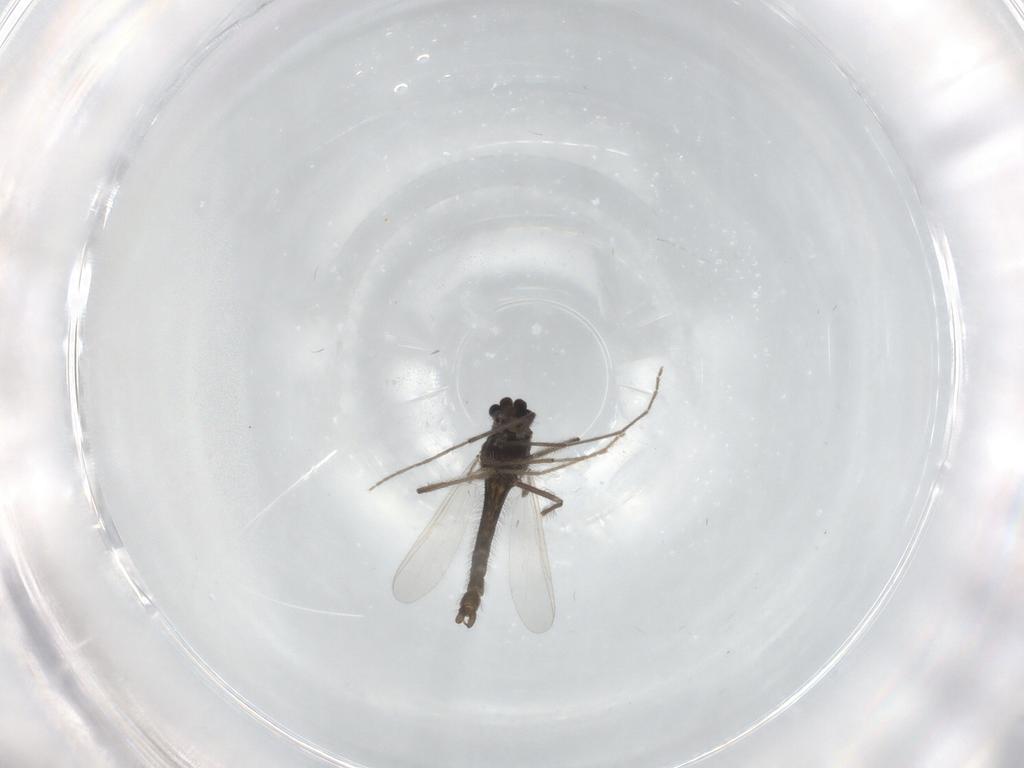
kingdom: Animalia
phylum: Arthropoda
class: Insecta
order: Diptera
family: Chironomidae
